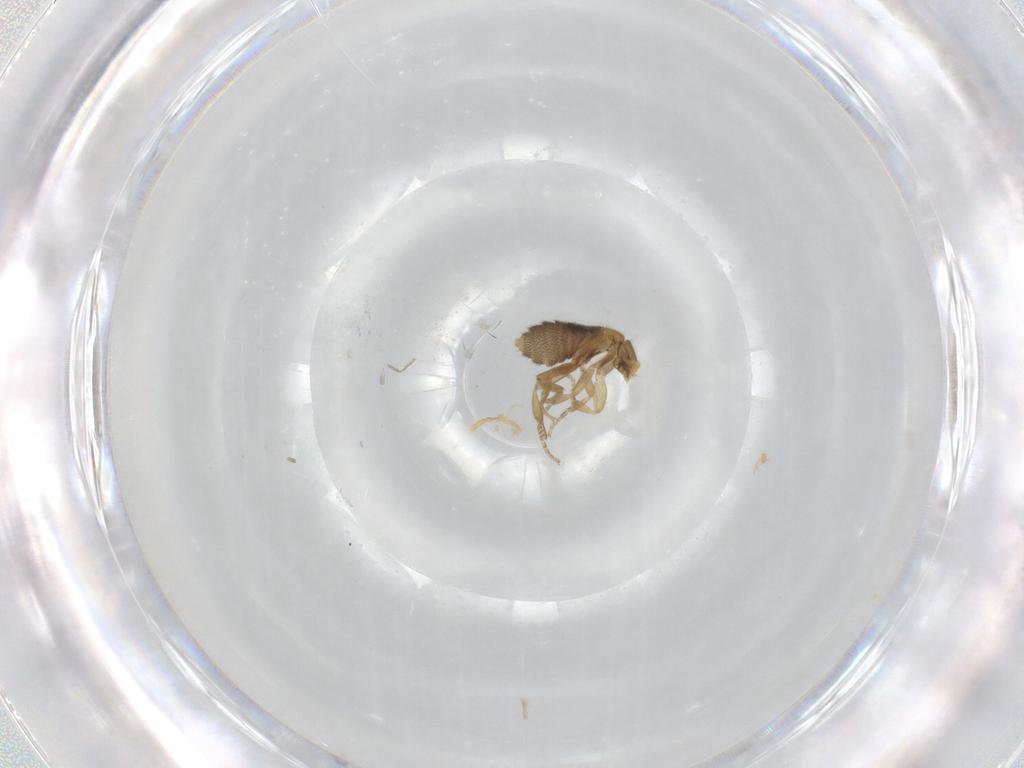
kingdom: Animalia
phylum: Arthropoda
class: Insecta
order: Diptera
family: Cecidomyiidae
